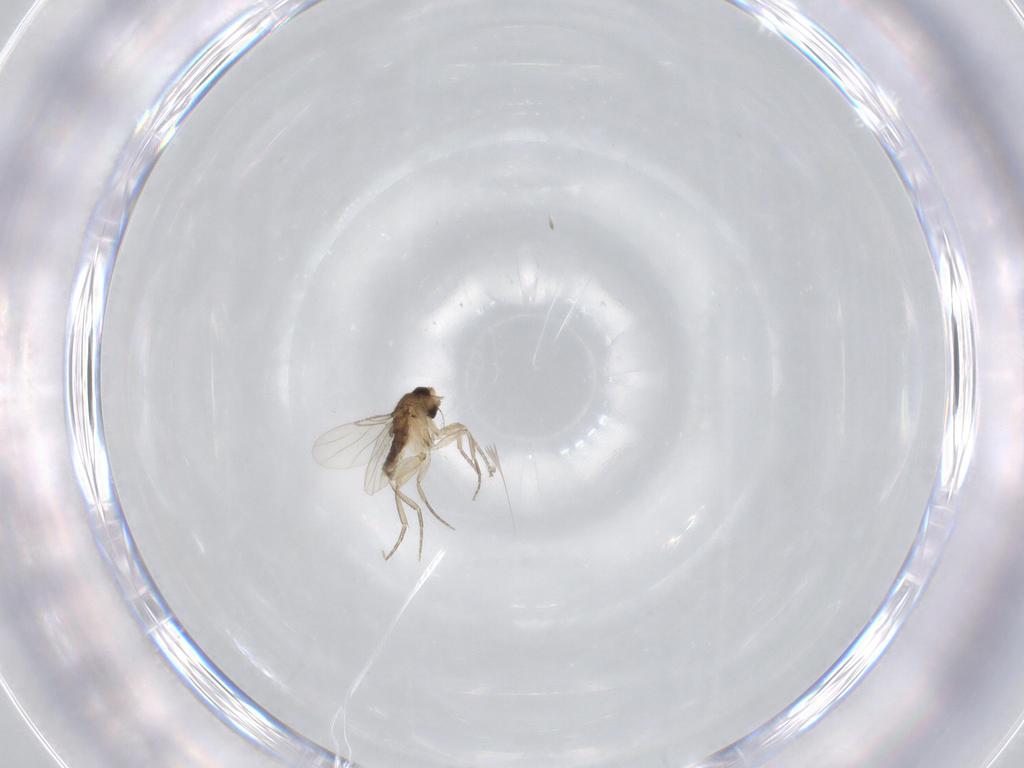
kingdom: Animalia
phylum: Arthropoda
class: Insecta
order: Diptera
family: Phoridae
